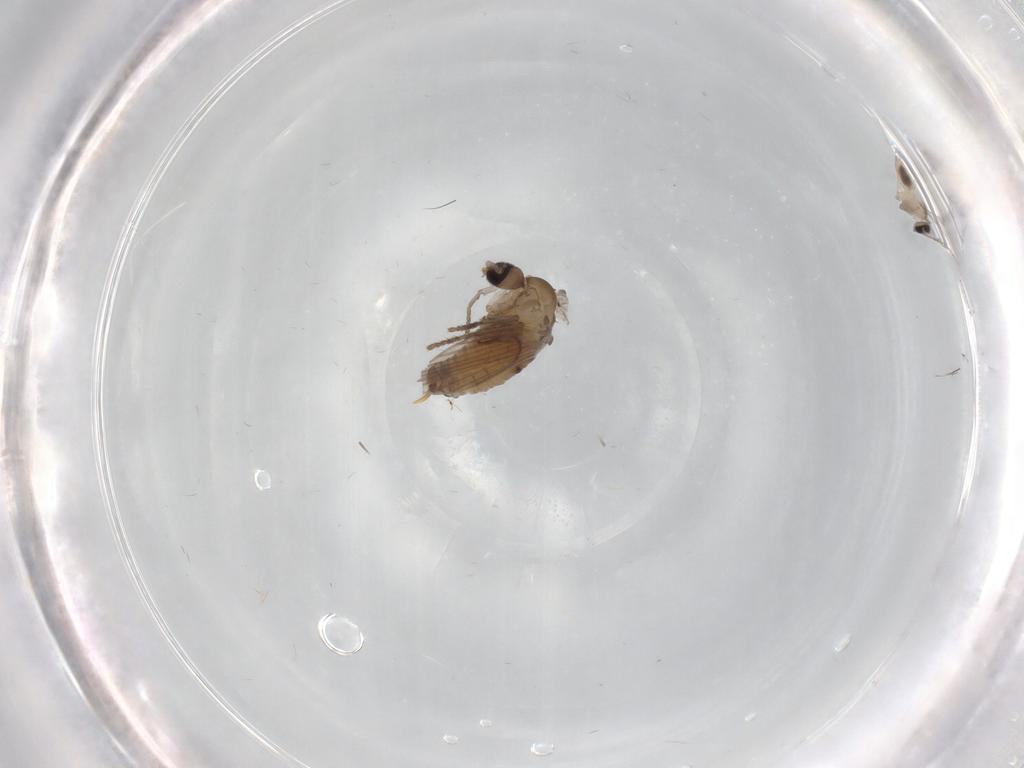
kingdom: Animalia
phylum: Arthropoda
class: Insecta
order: Diptera
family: Psychodidae
